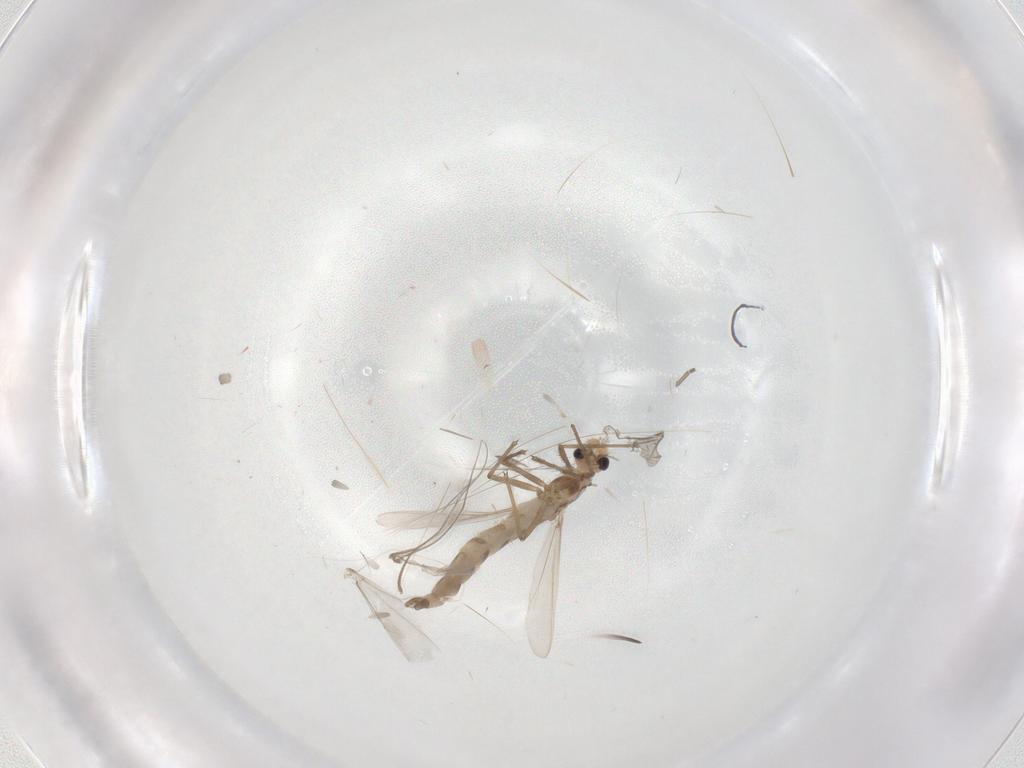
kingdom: Animalia
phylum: Arthropoda
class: Insecta
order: Diptera
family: Chironomidae
